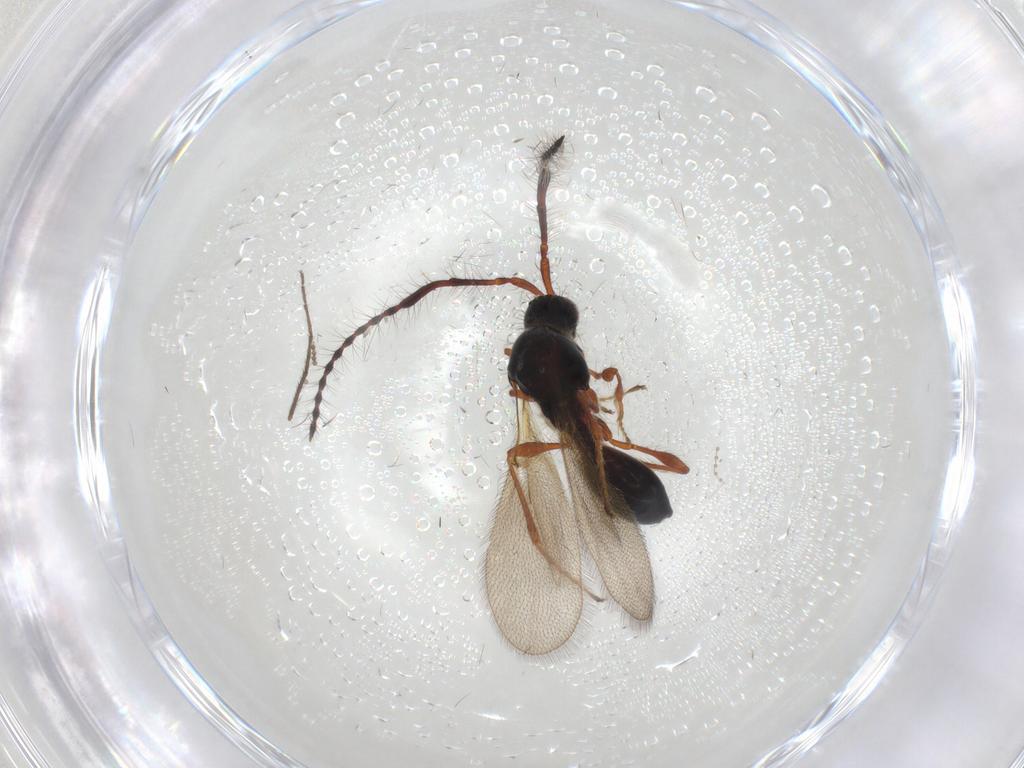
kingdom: Animalia
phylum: Arthropoda
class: Insecta
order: Hymenoptera
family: Diapriidae
